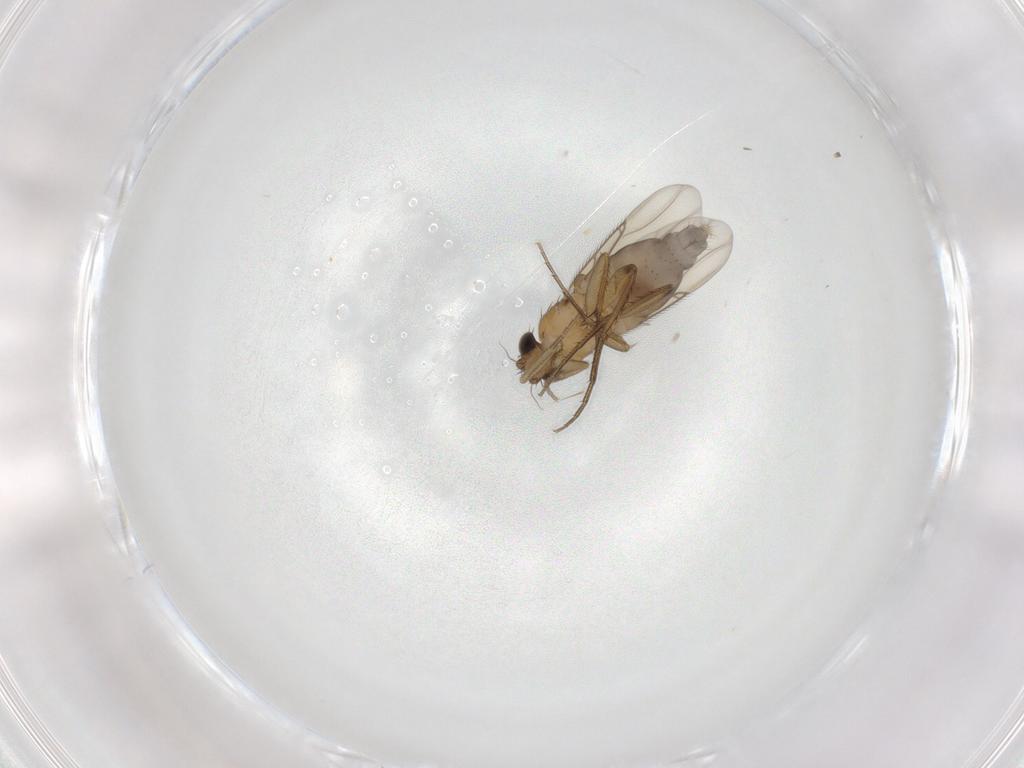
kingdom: Animalia
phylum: Arthropoda
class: Insecta
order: Diptera
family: Phoridae
